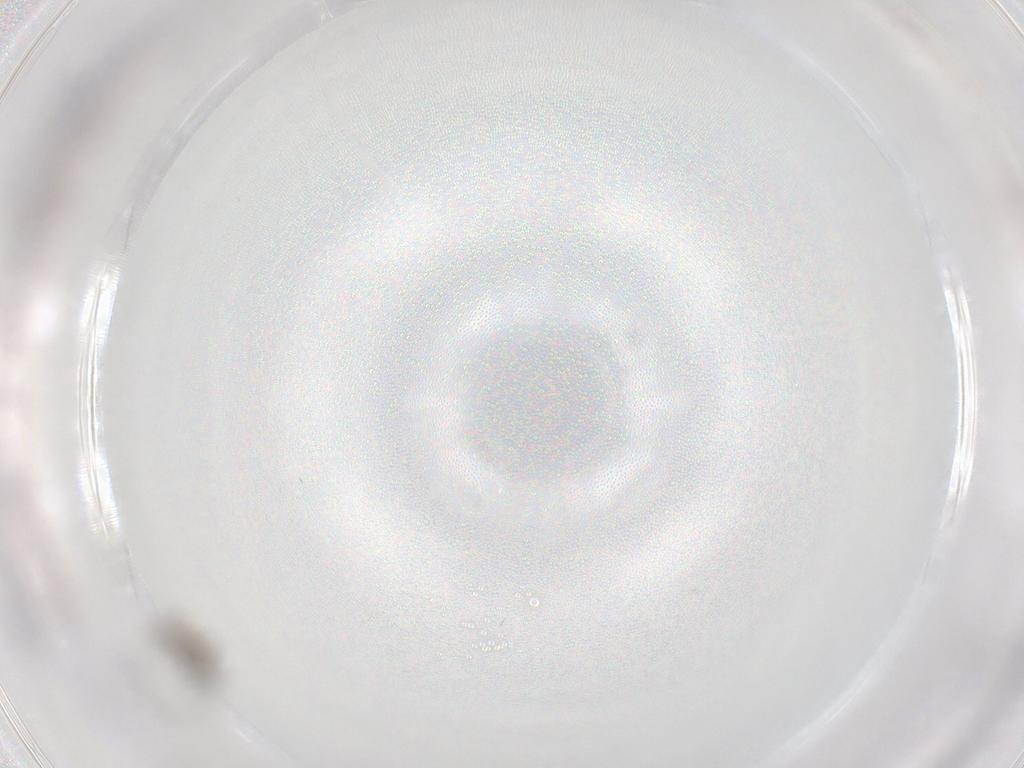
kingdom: Animalia
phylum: Arthropoda
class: Insecta
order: Diptera
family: Cecidomyiidae
